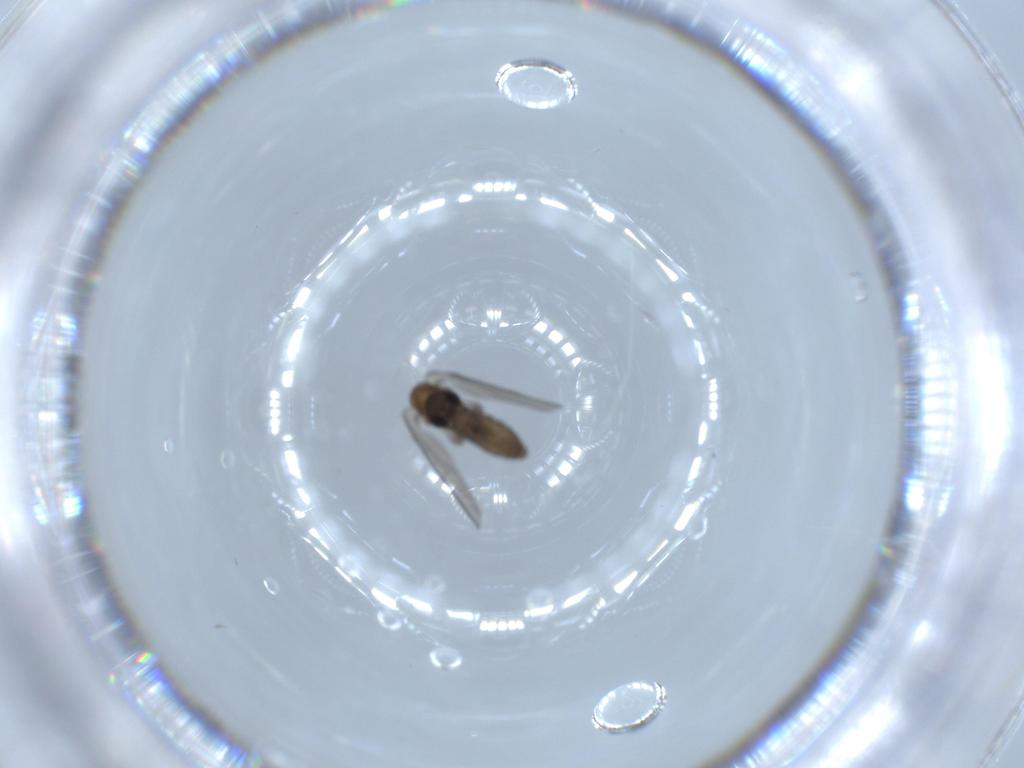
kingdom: Animalia
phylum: Arthropoda
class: Insecta
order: Diptera
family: Psychodidae
